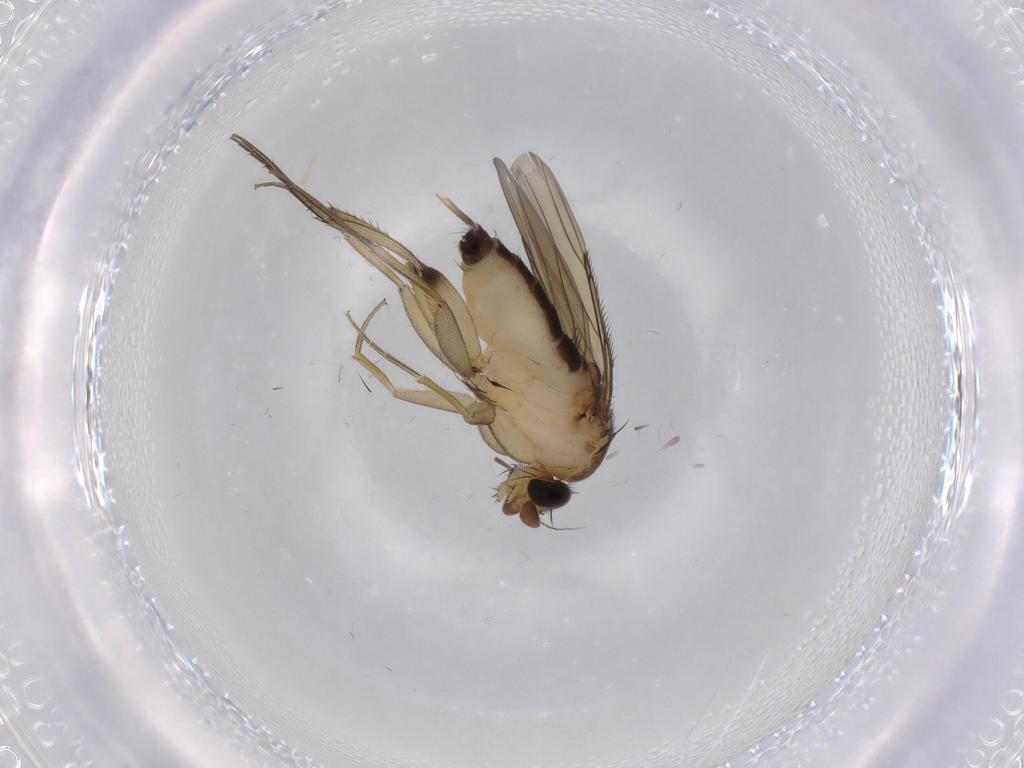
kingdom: Animalia
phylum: Arthropoda
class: Insecta
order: Diptera
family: Phoridae
